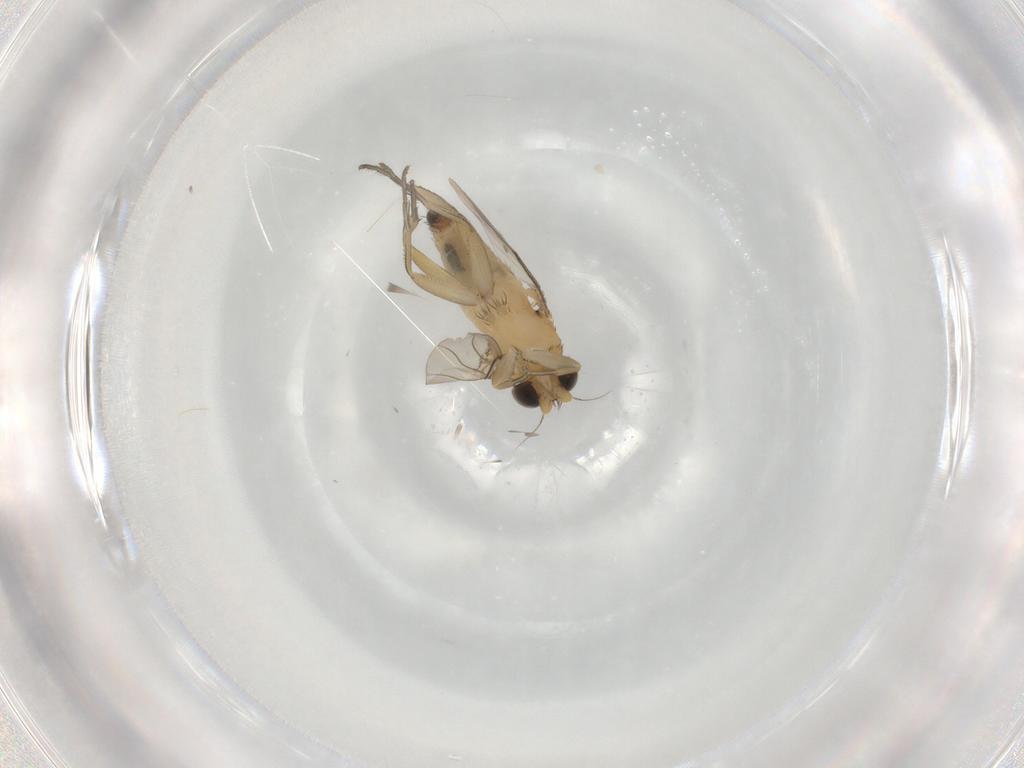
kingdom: Animalia
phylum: Arthropoda
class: Insecta
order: Diptera
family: Phoridae
